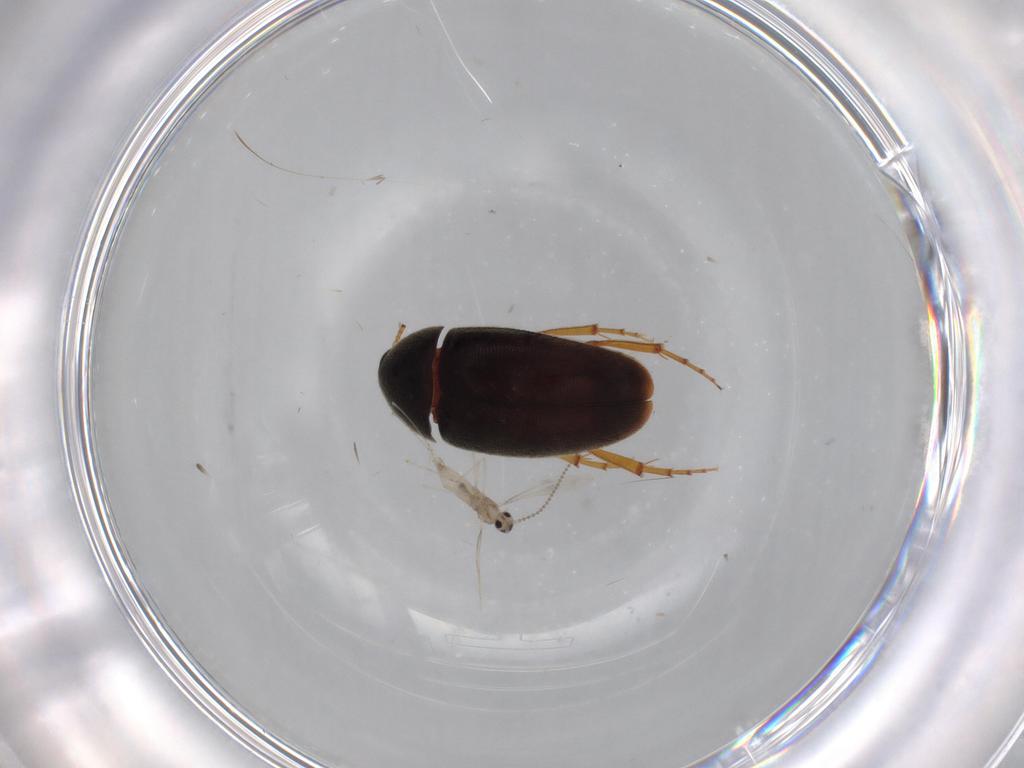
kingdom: Animalia
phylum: Arthropoda
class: Insecta
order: Coleoptera
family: Scraptiidae
